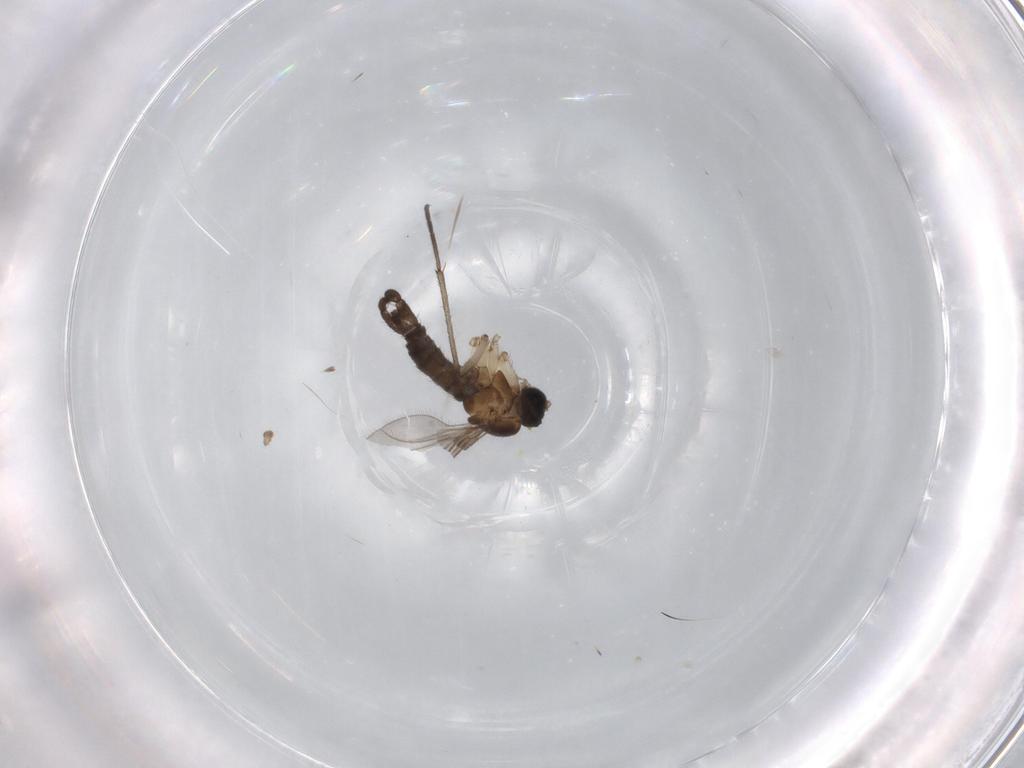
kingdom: Animalia
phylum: Arthropoda
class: Insecta
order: Diptera
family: Sciaridae
